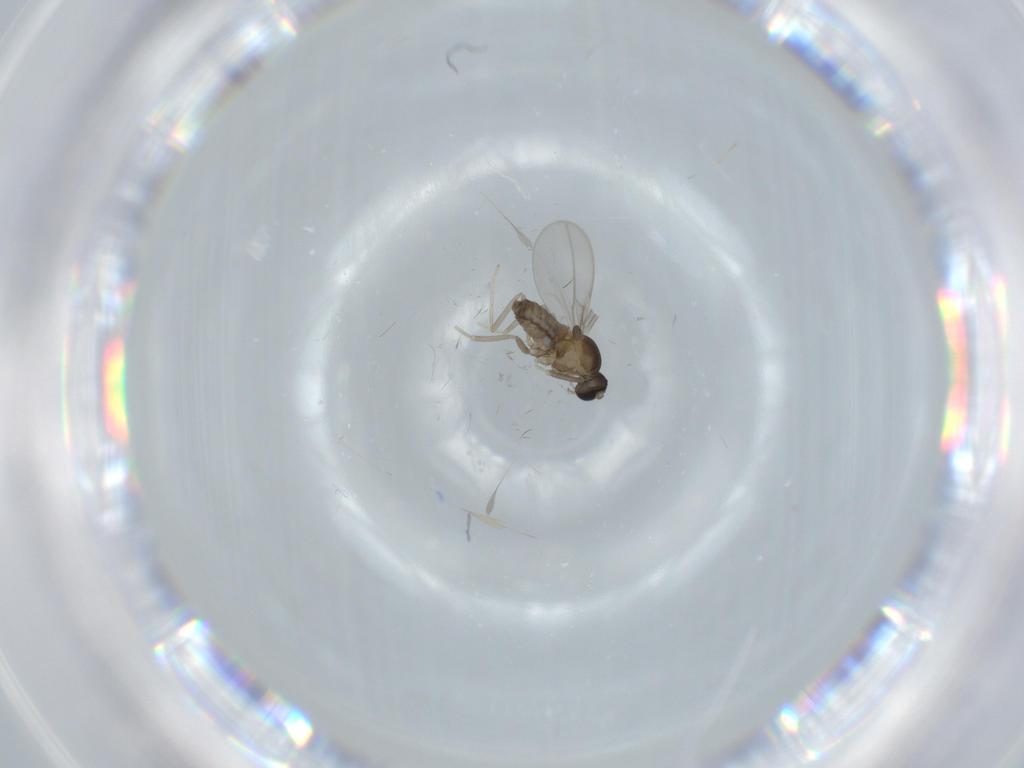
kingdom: Animalia
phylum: Arthropoda
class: Insecta
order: Diptera
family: Cecidomyiidae
